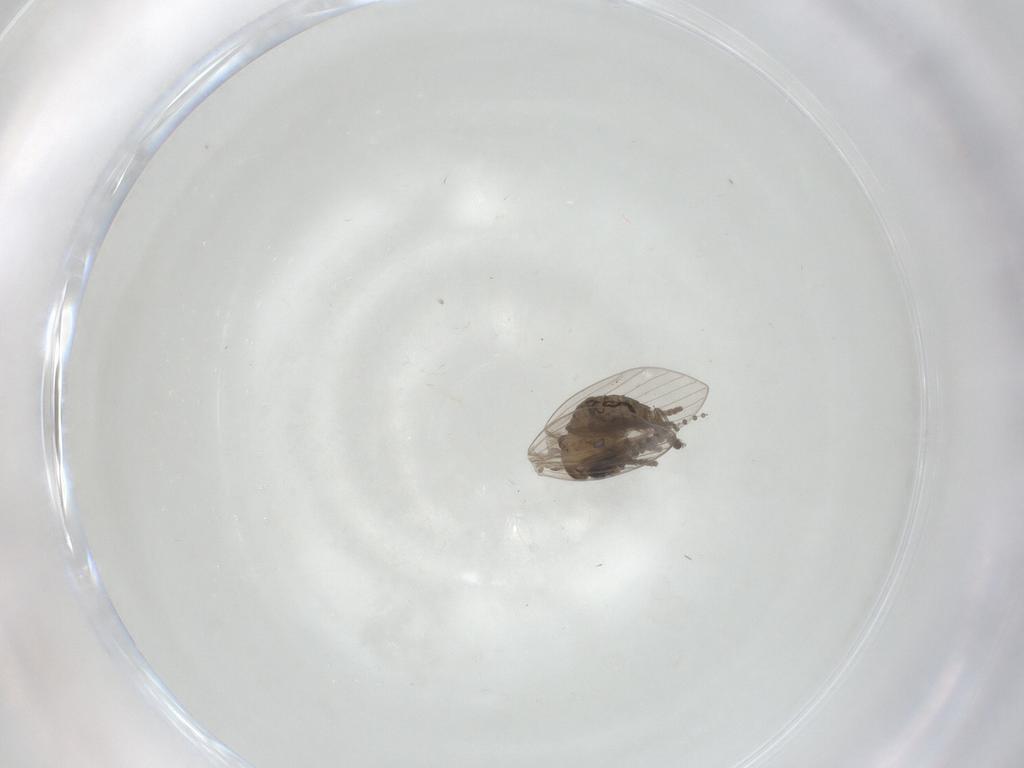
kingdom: Animalia
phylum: Arthropoda
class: Insecta
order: Diptera
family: Psychodidae
